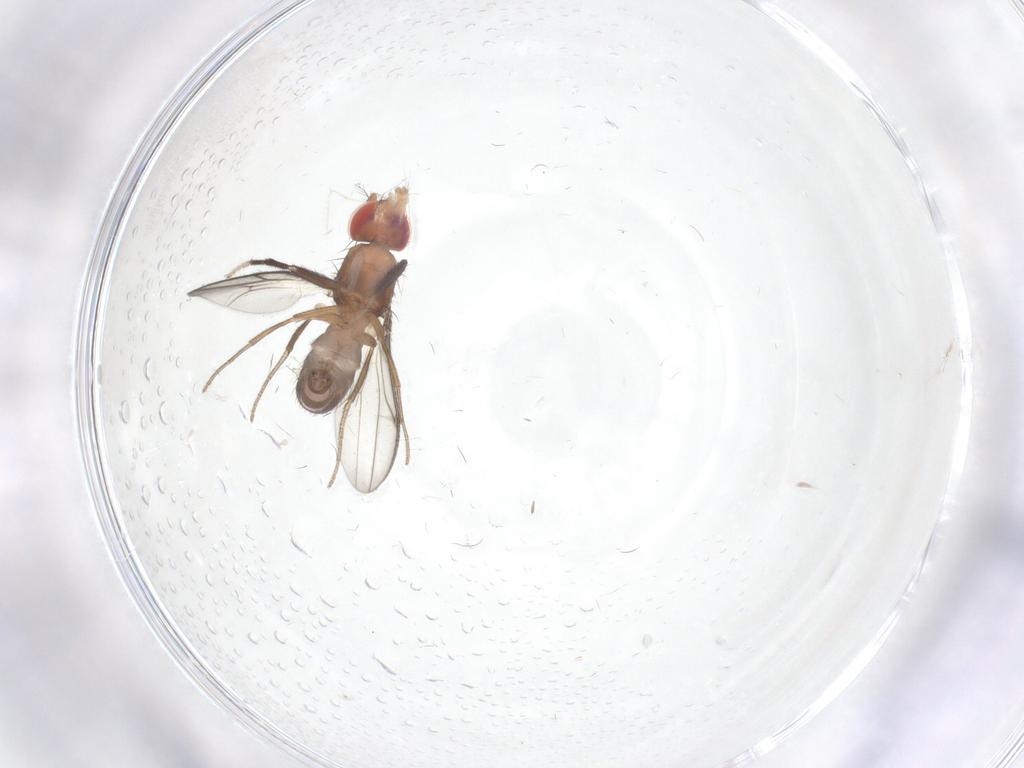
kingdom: Animalia
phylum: Arthropoda
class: Insecta
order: Diptera
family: Drosophilidae
